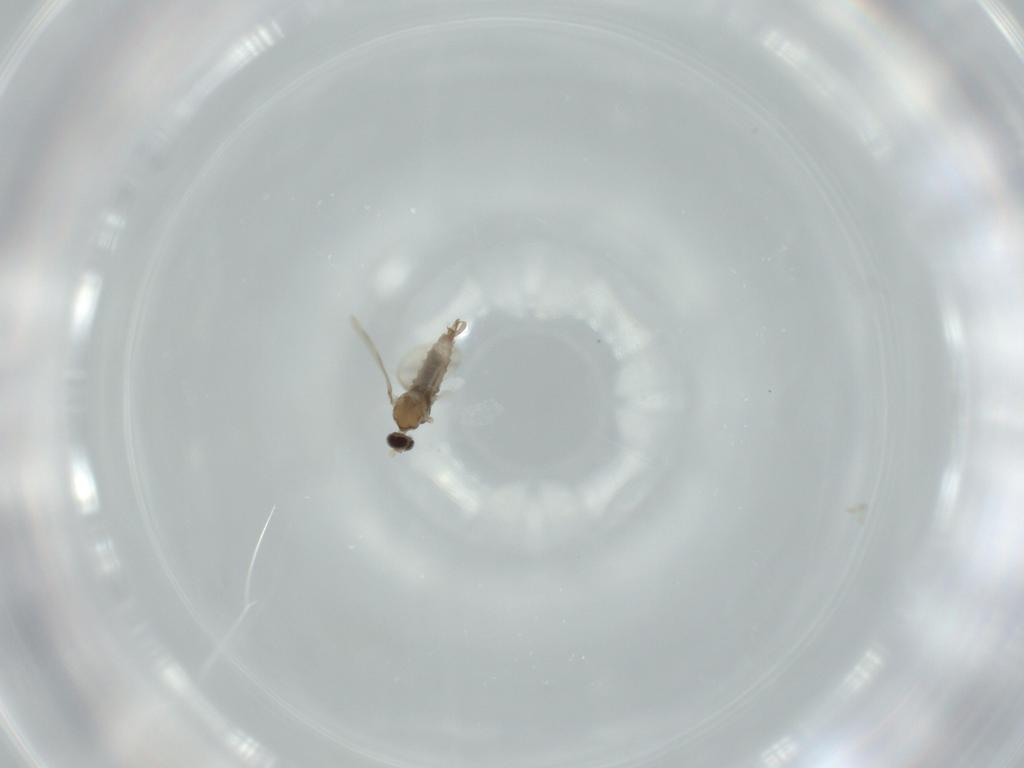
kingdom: Animalia
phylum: Arthropoda
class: Insecta
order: Diptera
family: Cecidomyiidae
